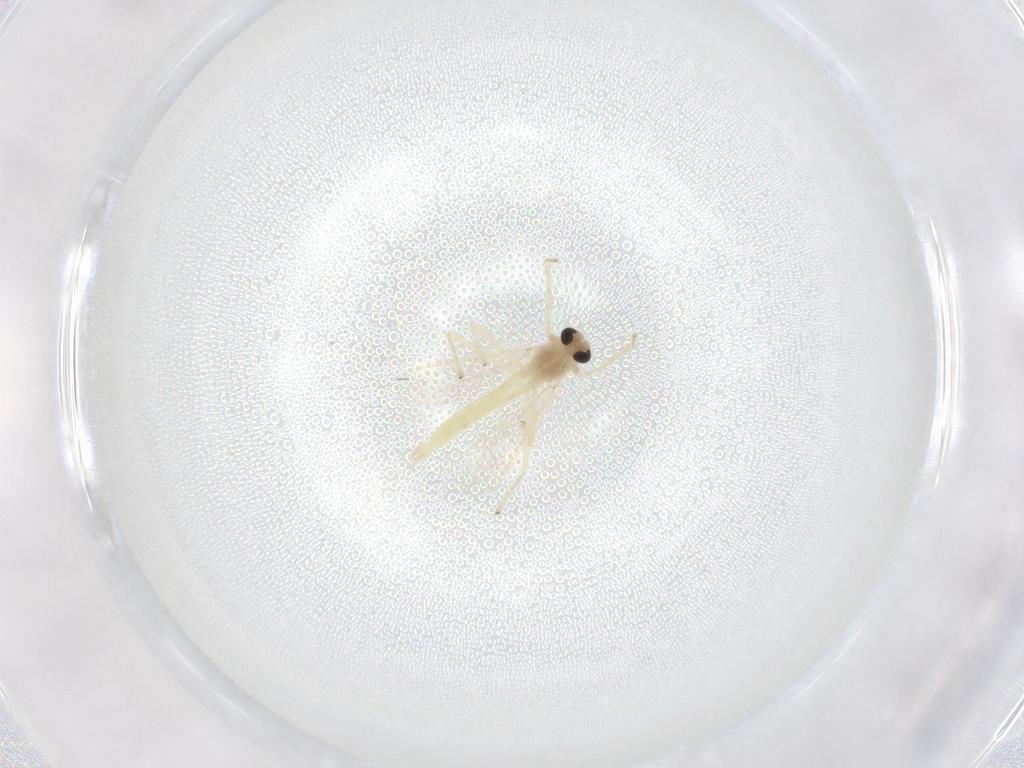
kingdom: Animalia
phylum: Arthropoda
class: Insecta
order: Diptera
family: Chironomidae
